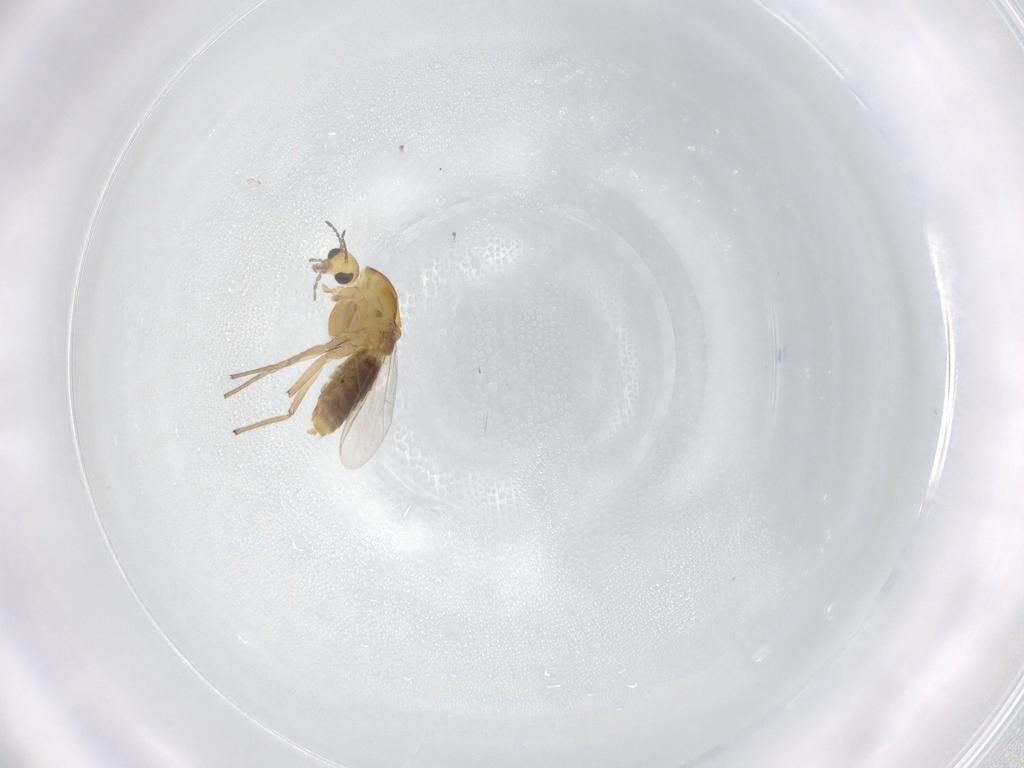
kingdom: Animalia
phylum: Arthropoda
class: Insecta
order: Diptera
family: Chironomidae
